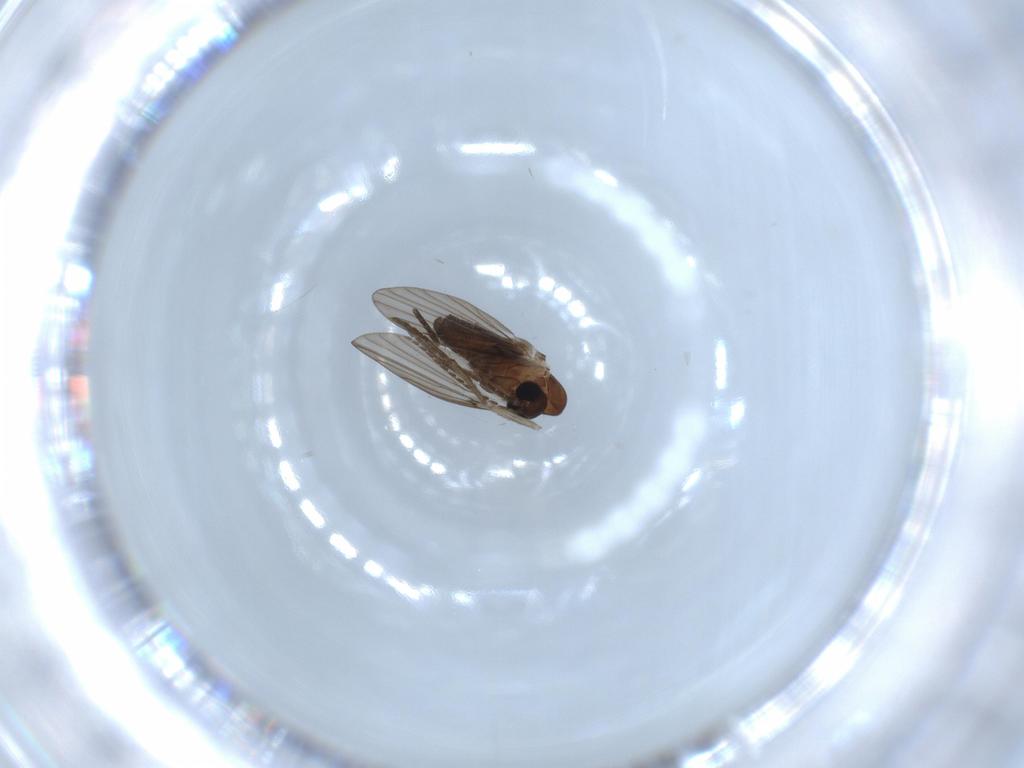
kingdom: Animalia
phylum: Arthropoda
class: Insecta
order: Diptera
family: Psychodidae
